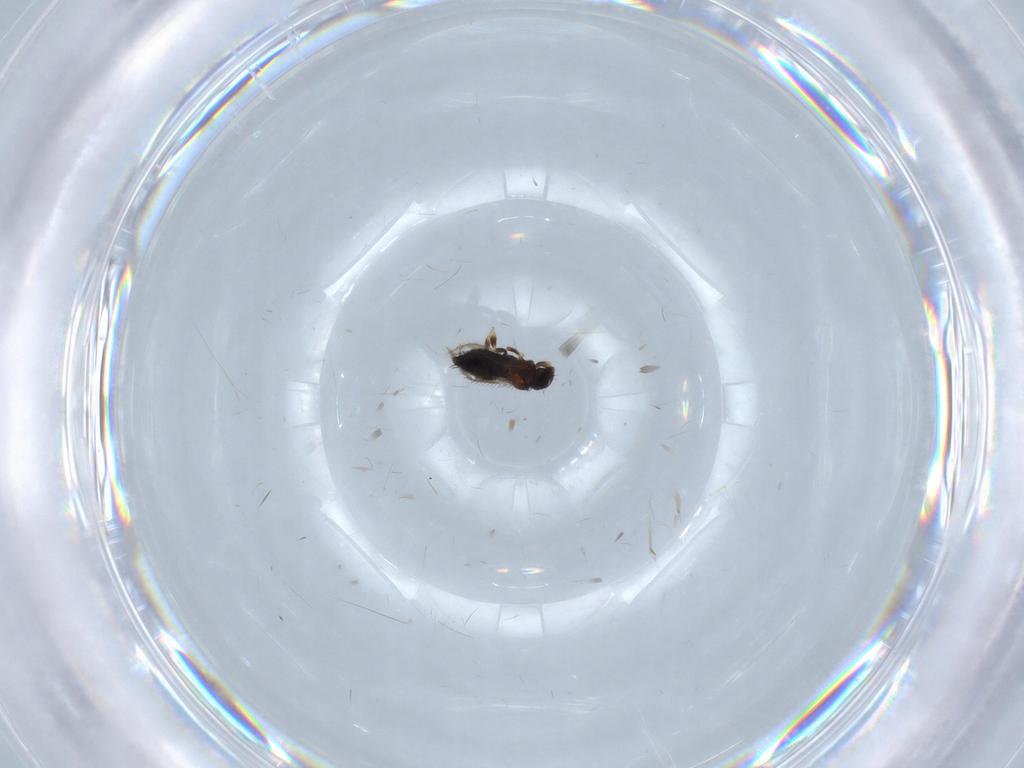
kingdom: Animalia
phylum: Arthropoda
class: Insecta
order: Thysanoptera
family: Thripidae
